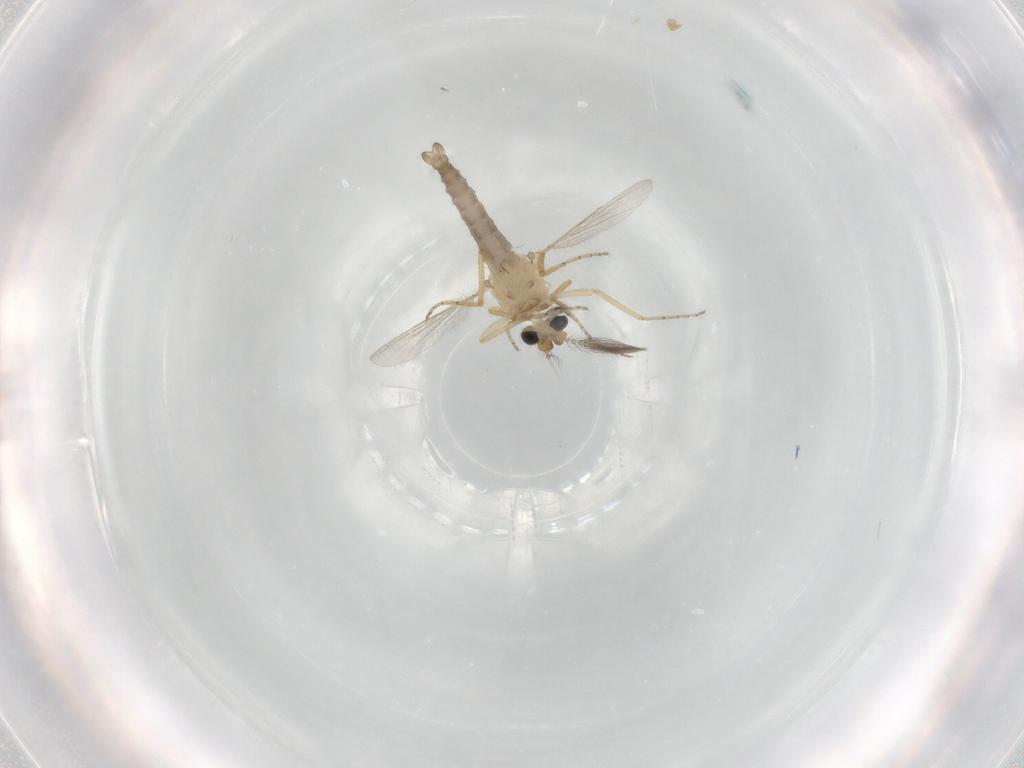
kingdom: Animalia
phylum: Arthropoda
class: Insecta
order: Diptera
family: Ceratopogonidae
